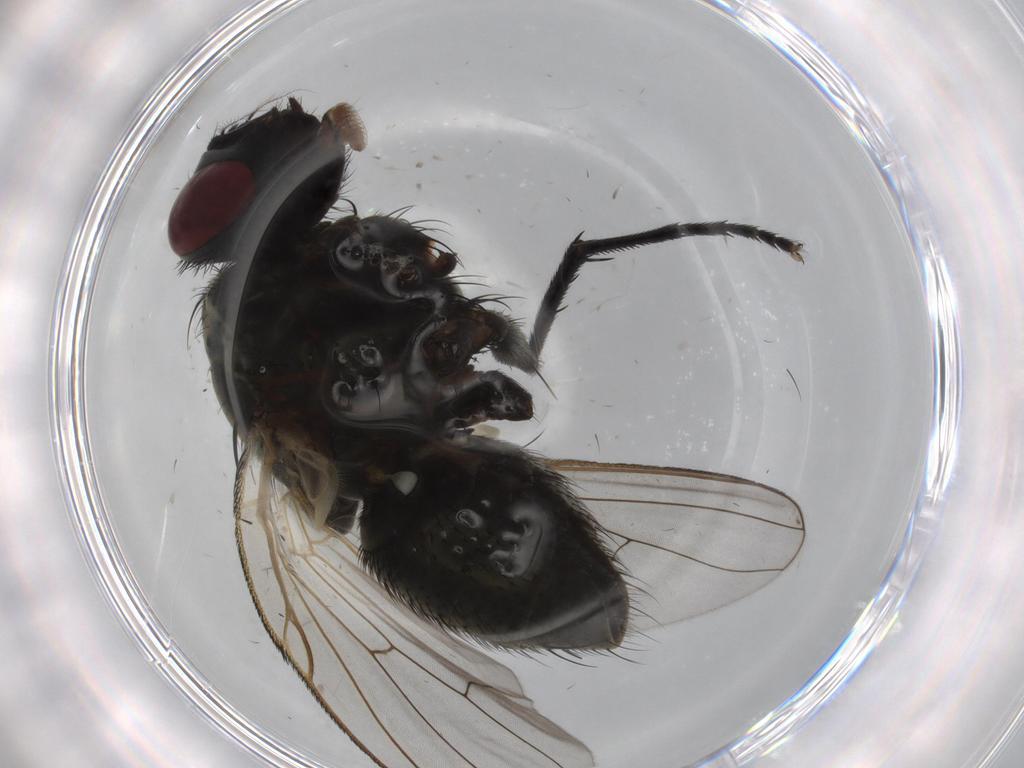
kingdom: Animalia
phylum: Arthropoda
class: Insecta
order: Diptera
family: Muscidae
